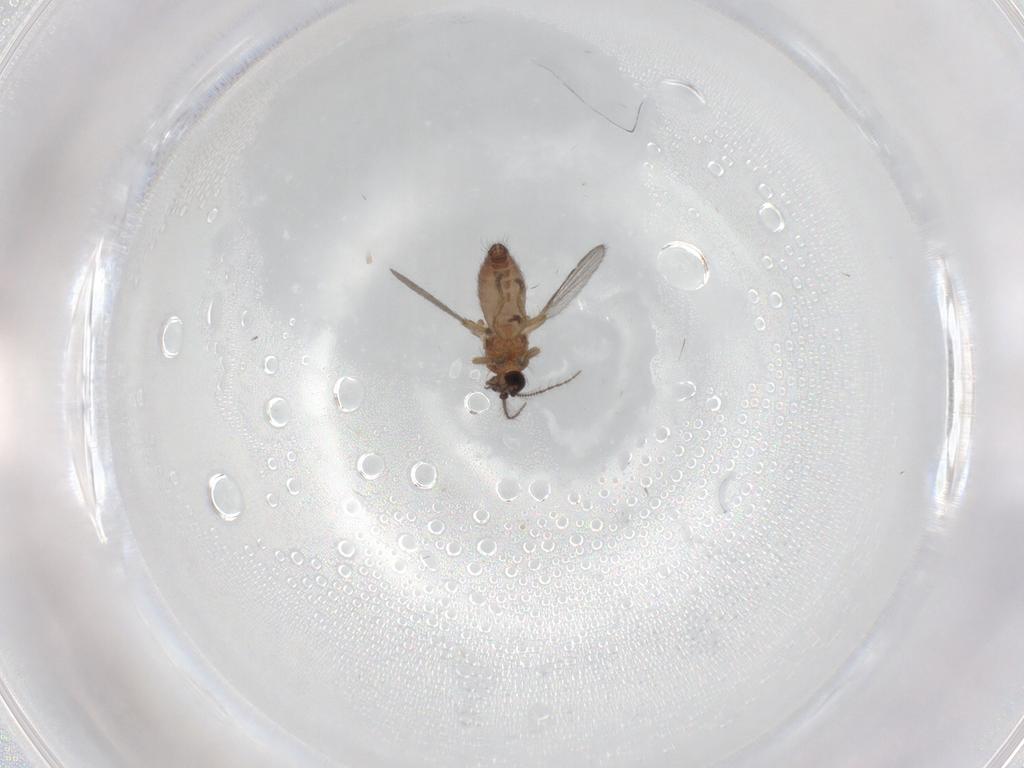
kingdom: Animalia
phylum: Arthropoda
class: Insecta
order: Diptera
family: Ceratopogonidae
